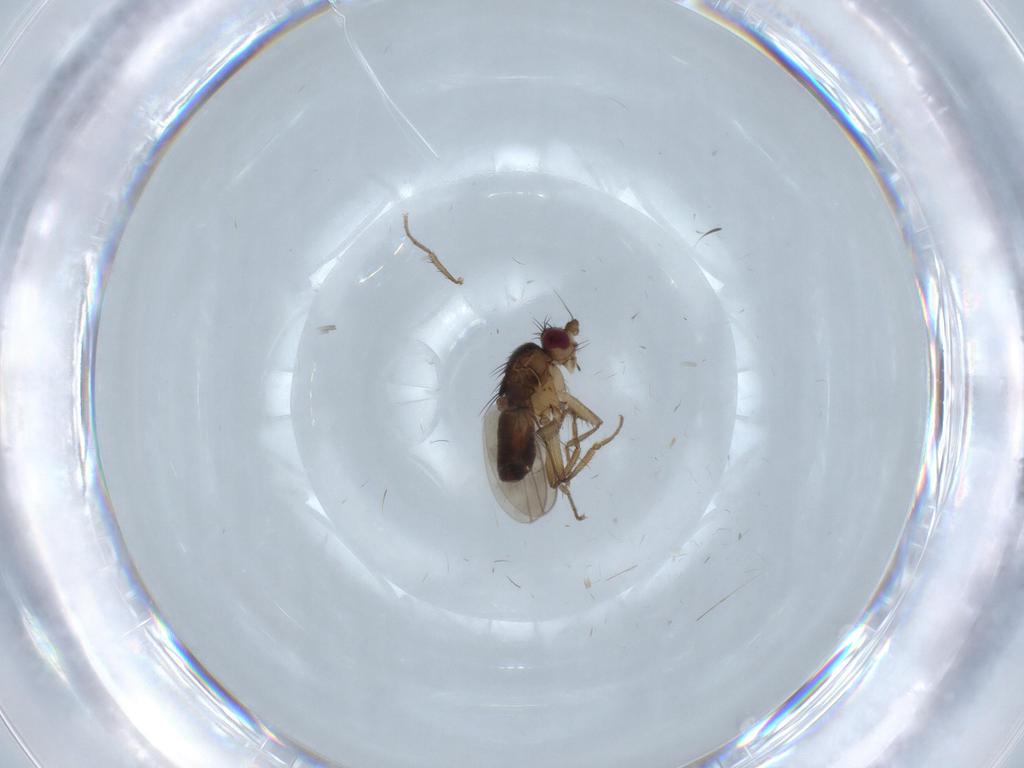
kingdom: Animalia
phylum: Arthropoda
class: Insecta
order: Diptera
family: Sphaeroceridae
